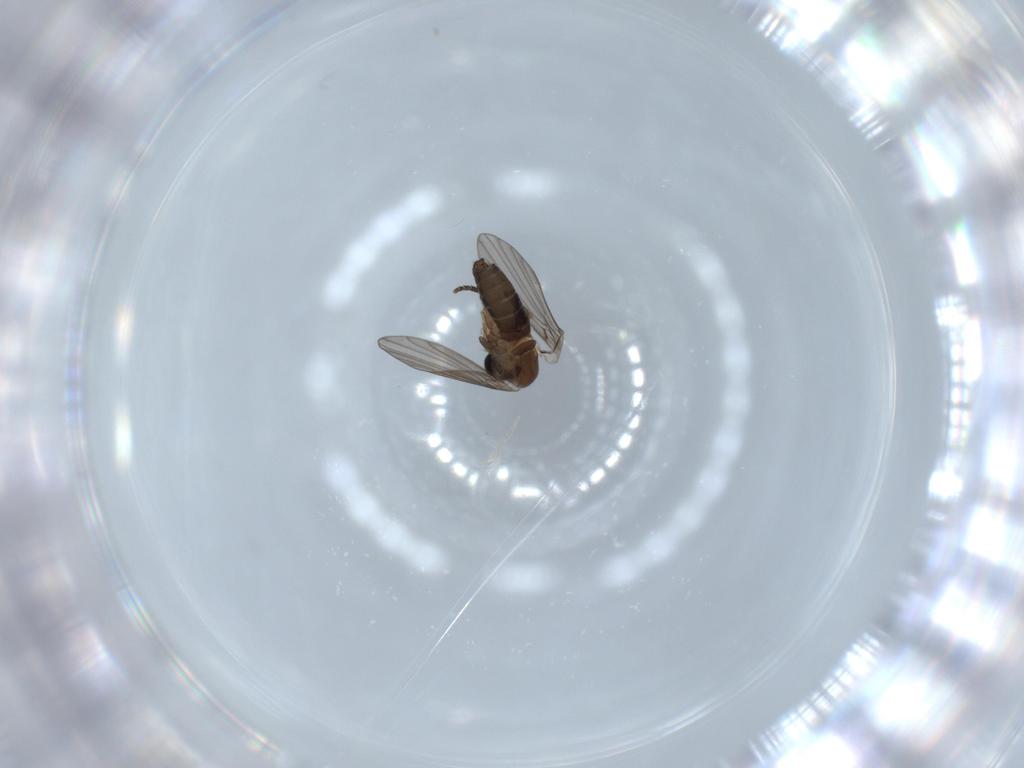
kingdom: Animalia
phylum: Arthropoda
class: Insecta
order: Diptera
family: Psychodidae
